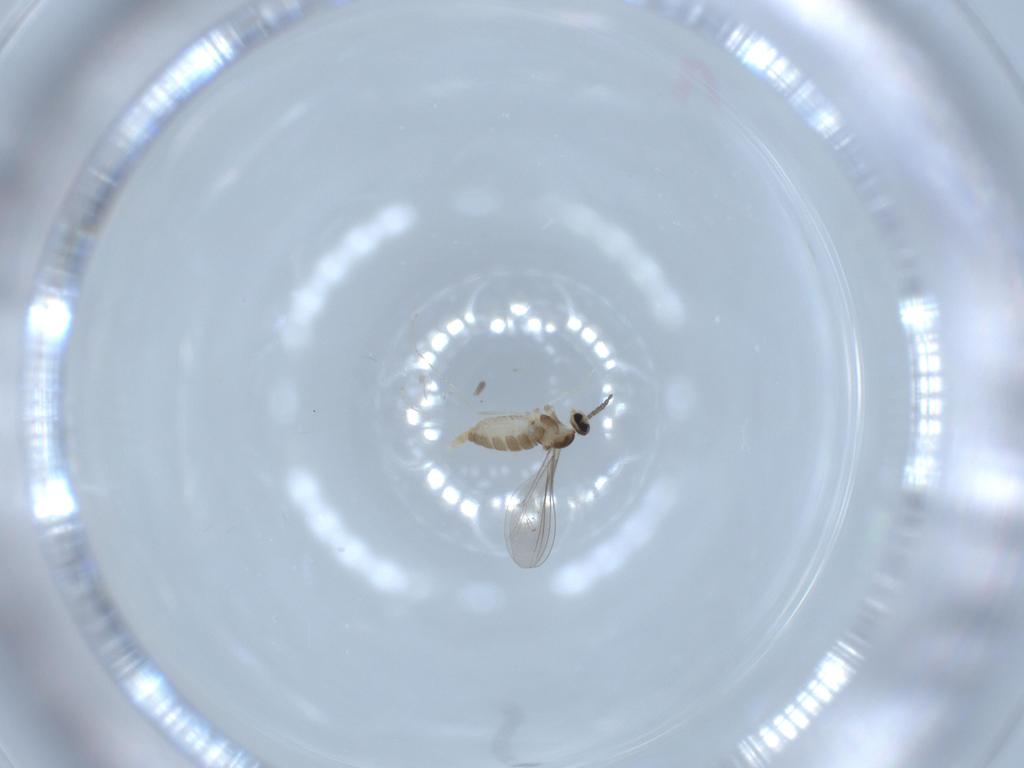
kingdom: Animalia
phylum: Arthropoda
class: Insecta
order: Diptera
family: Cecidomyiidae
